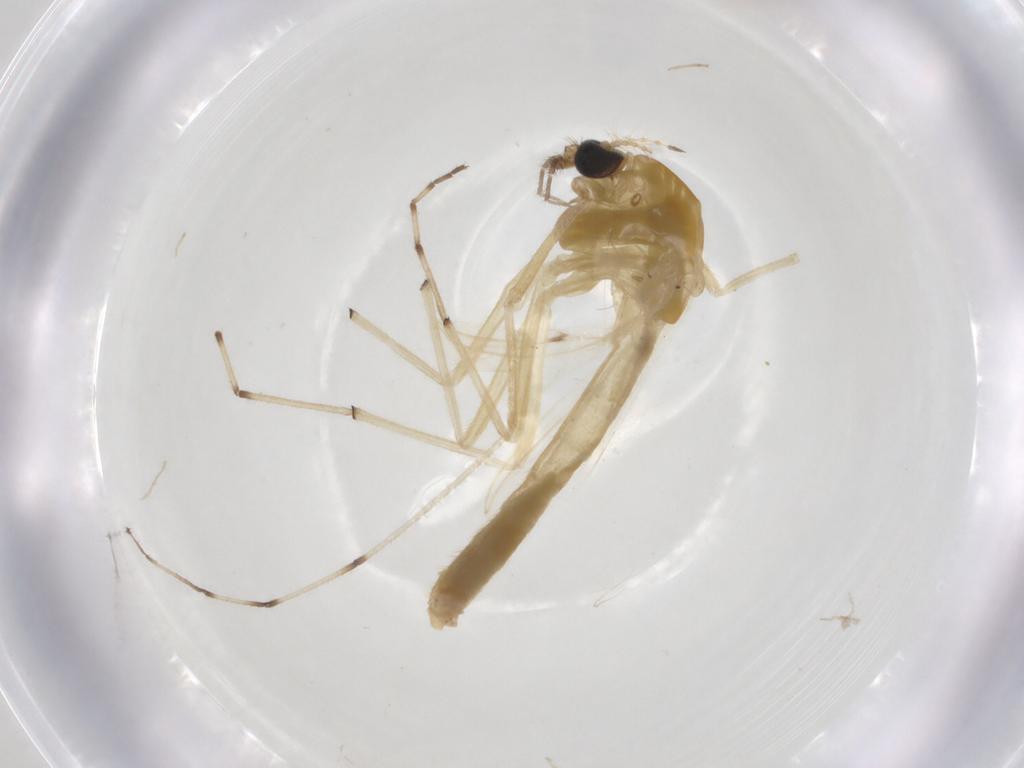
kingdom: Animalia
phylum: Arthropoda
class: Insecta
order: Diptera
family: Chironomidae
